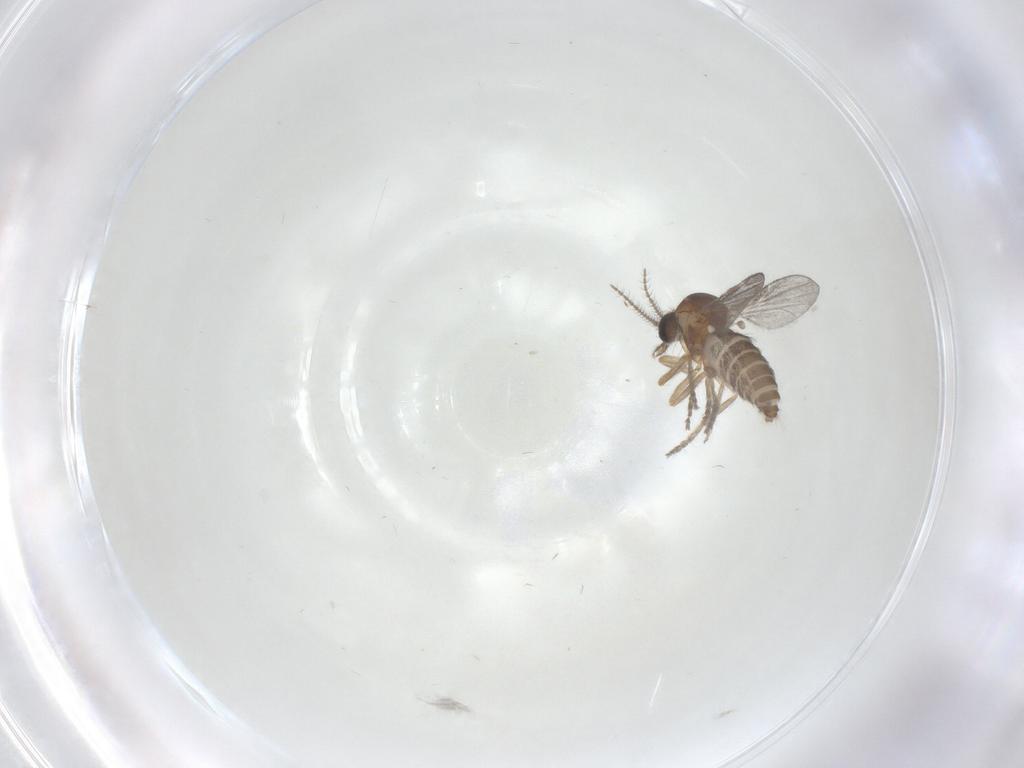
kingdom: Animalia
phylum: Arthropoda
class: Insecta
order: Diptera
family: Ceratopogonidae
